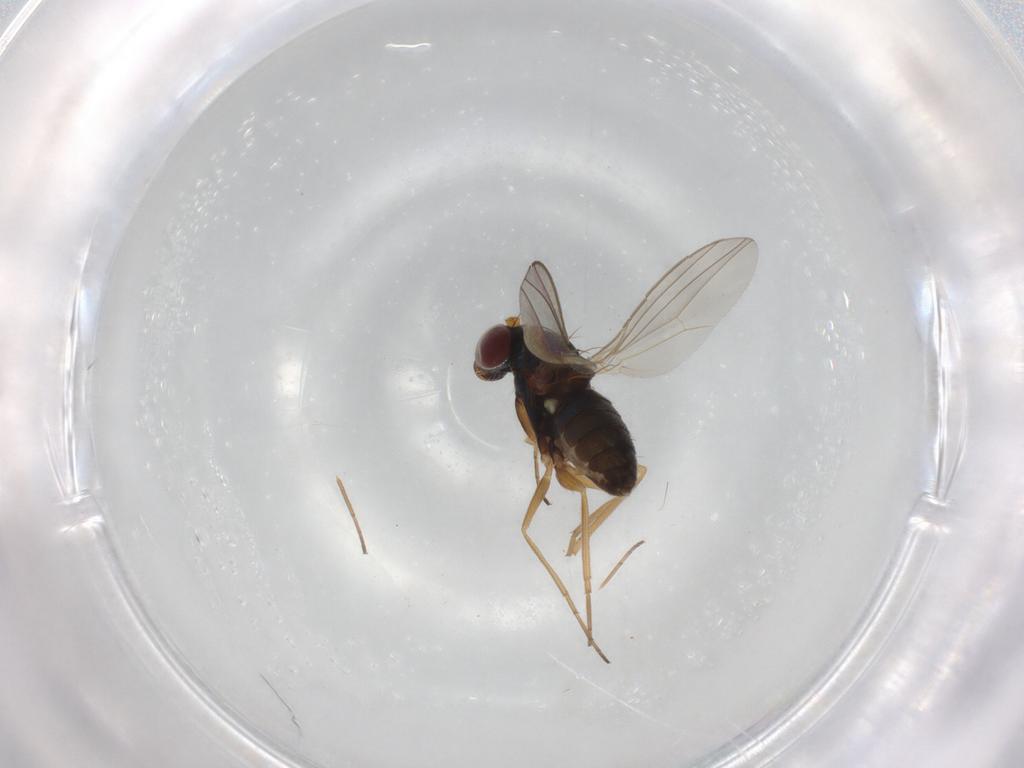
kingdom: Animalia
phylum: Arthropoda
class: Insecta
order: Diptera
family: Dolichopodidae
